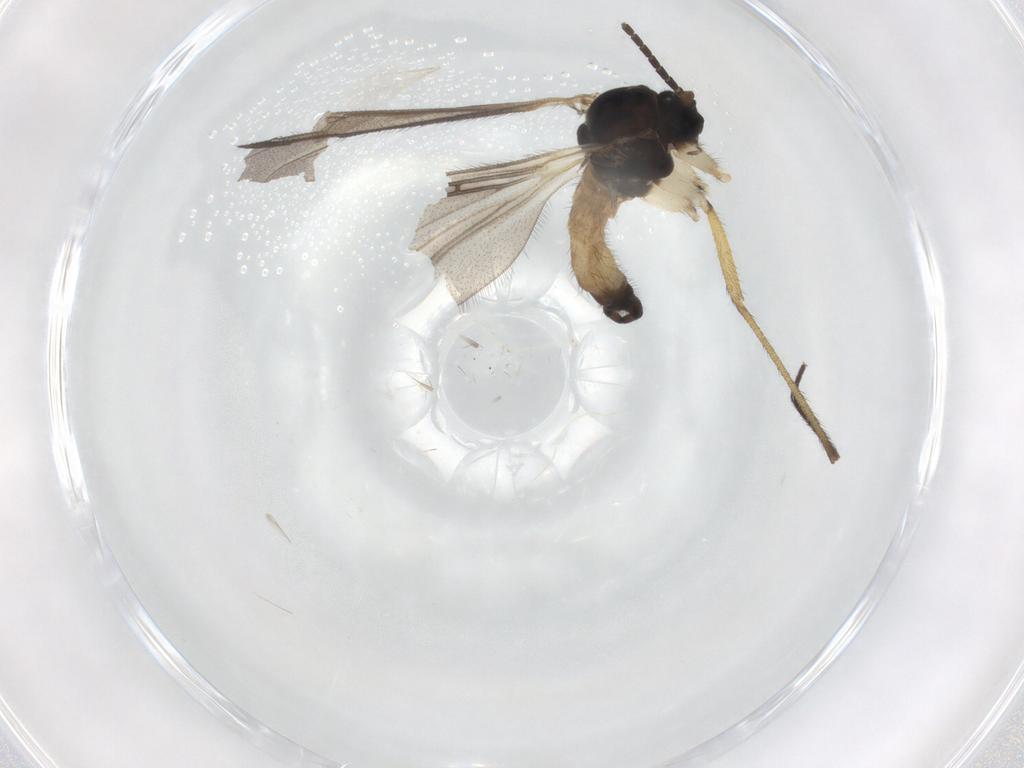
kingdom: Animalia
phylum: Arthropoda
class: Insecta
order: Diptera
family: Sciaridae
